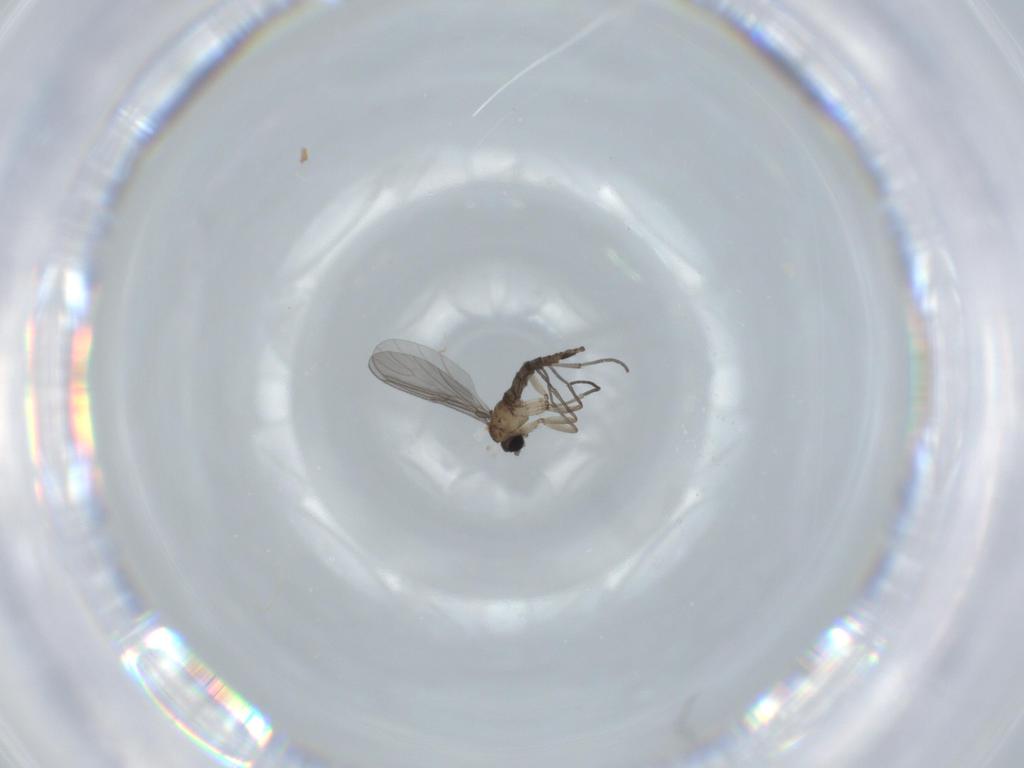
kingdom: Animalia
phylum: Arthropoda
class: Insecta
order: Diptera
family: Sciaridae
